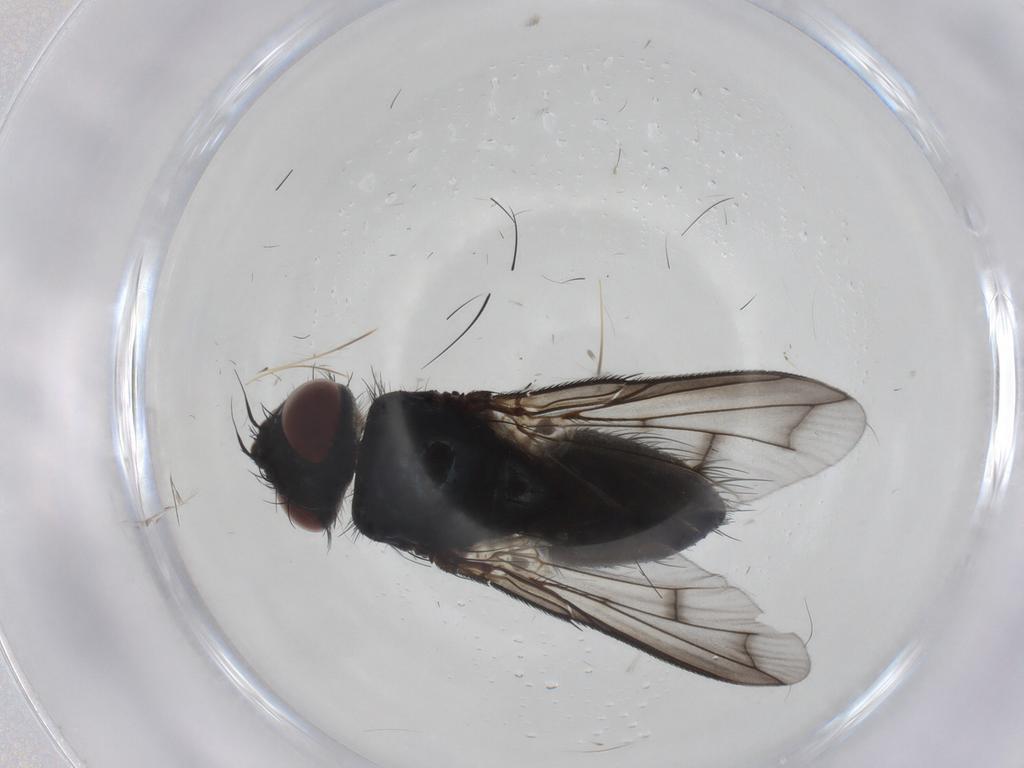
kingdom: Animalia
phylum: Arthropoda
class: Insecta
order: Diptera
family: Tachinidae
